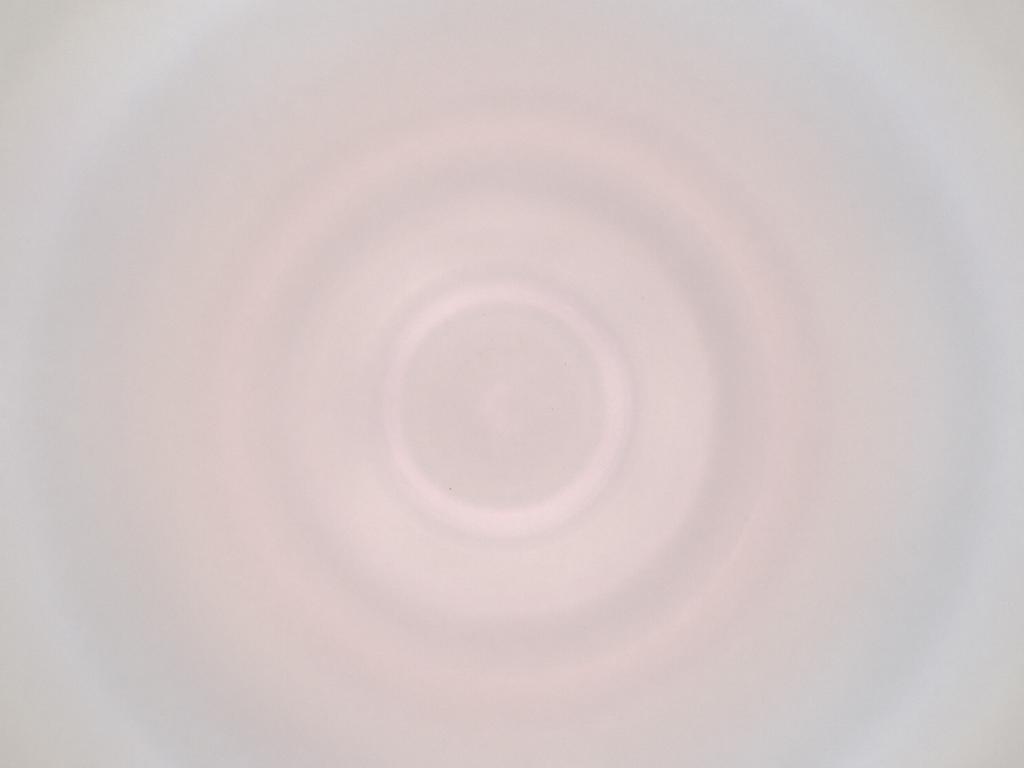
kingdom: Animalia
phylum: Arthropoda
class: Insecta
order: Diptera
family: Cecidomyiidae
